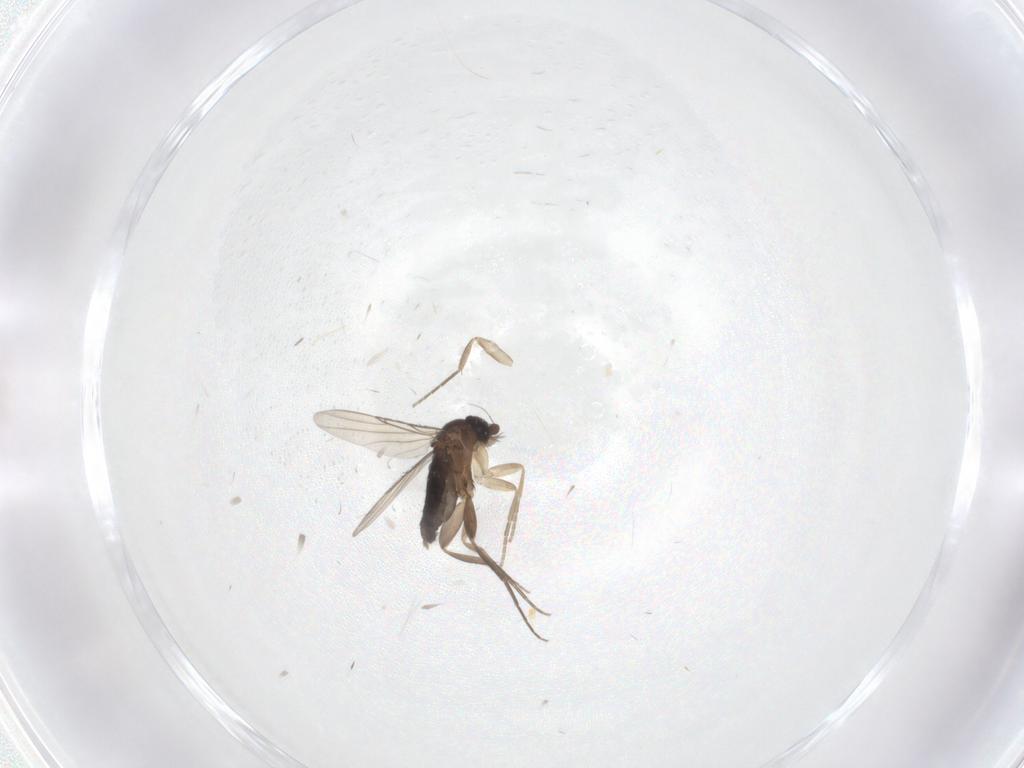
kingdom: Animalia
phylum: Arthropoda
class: Insecta
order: Diptera
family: Phoridae
